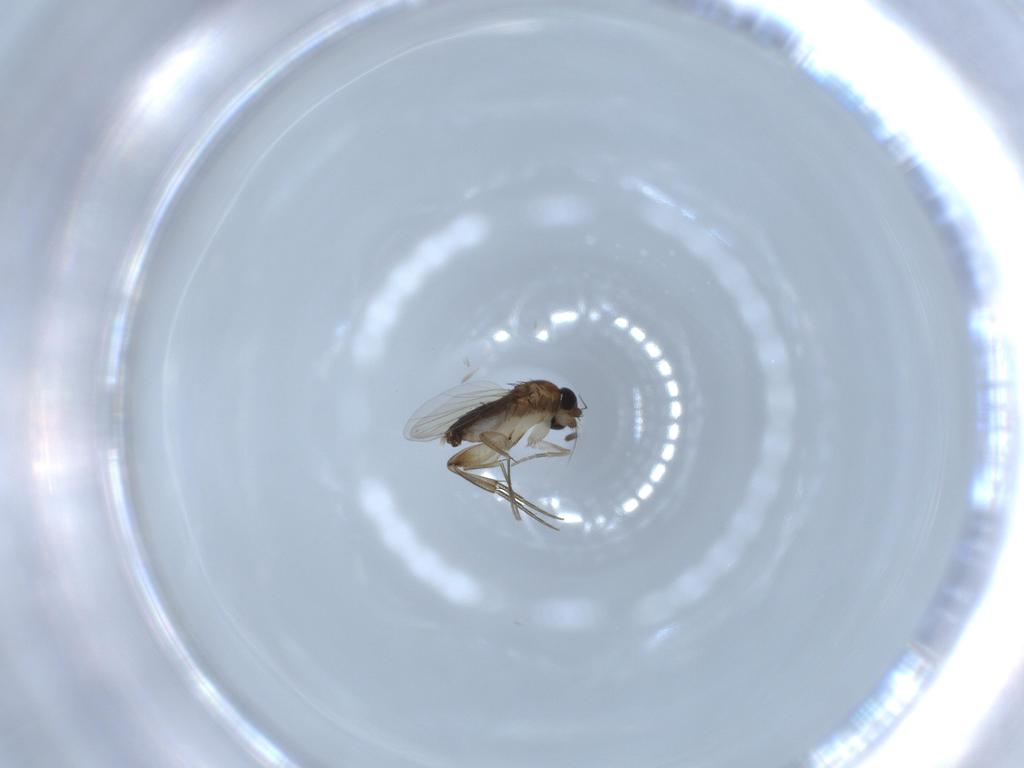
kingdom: Animalia
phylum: Arthropoda
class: Insecta
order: Diptera
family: Phoridae
